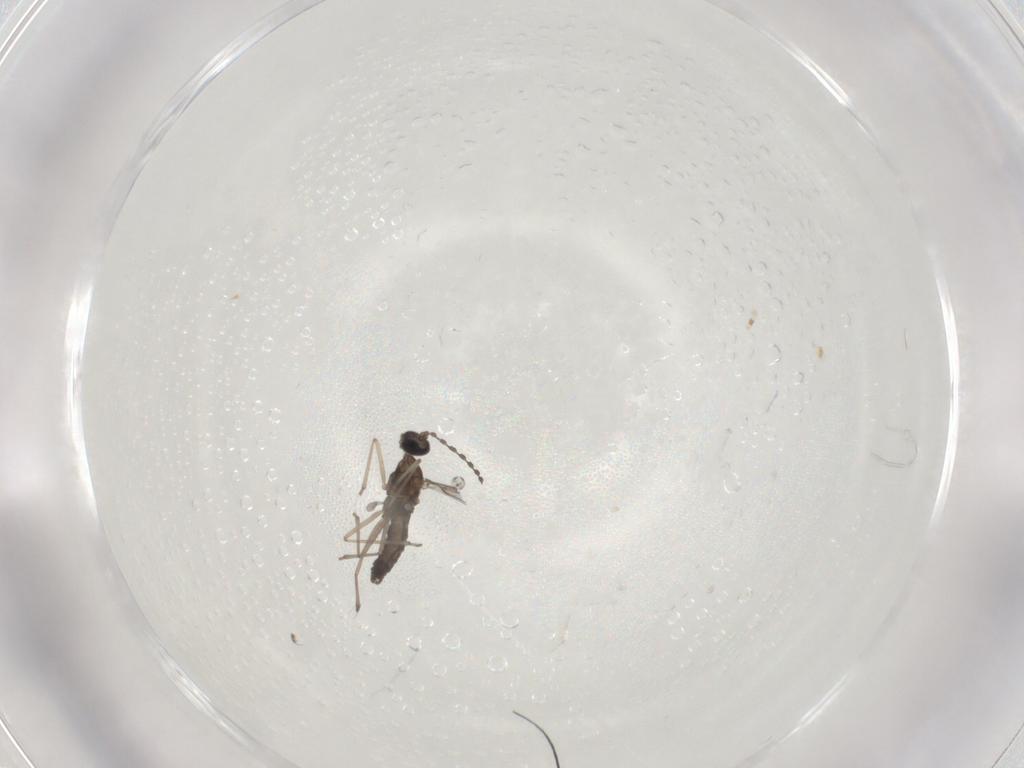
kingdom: Animalia
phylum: Arthropoda
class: Insecta
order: Diptera
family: Cecidomyiidae
